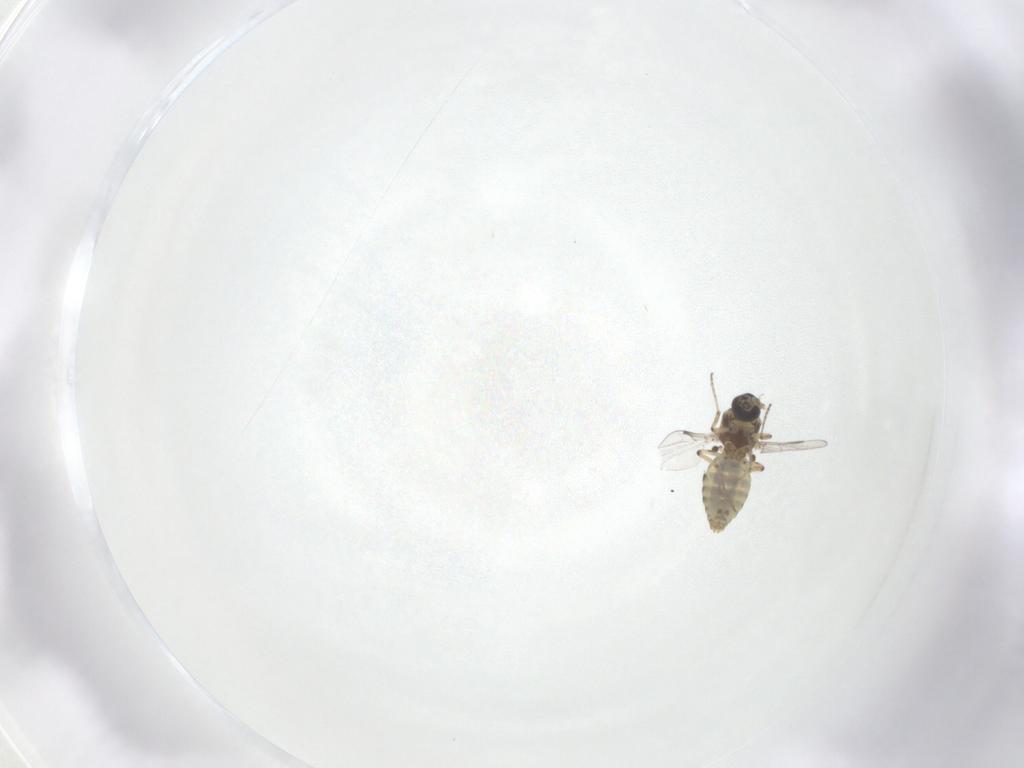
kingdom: Animalia
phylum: Arthropoda
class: Insecta
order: Diptera
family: Ceratopogonidae
